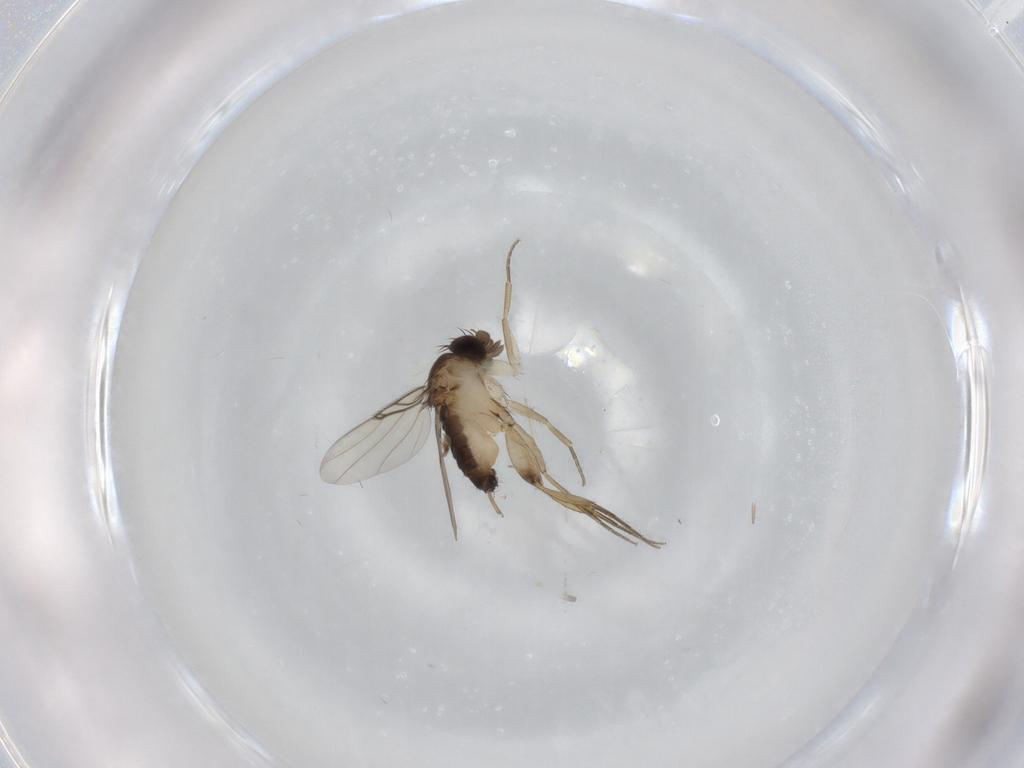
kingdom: Animalia
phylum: Arthropoda
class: Insecta
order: Diptera
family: Phoridae
